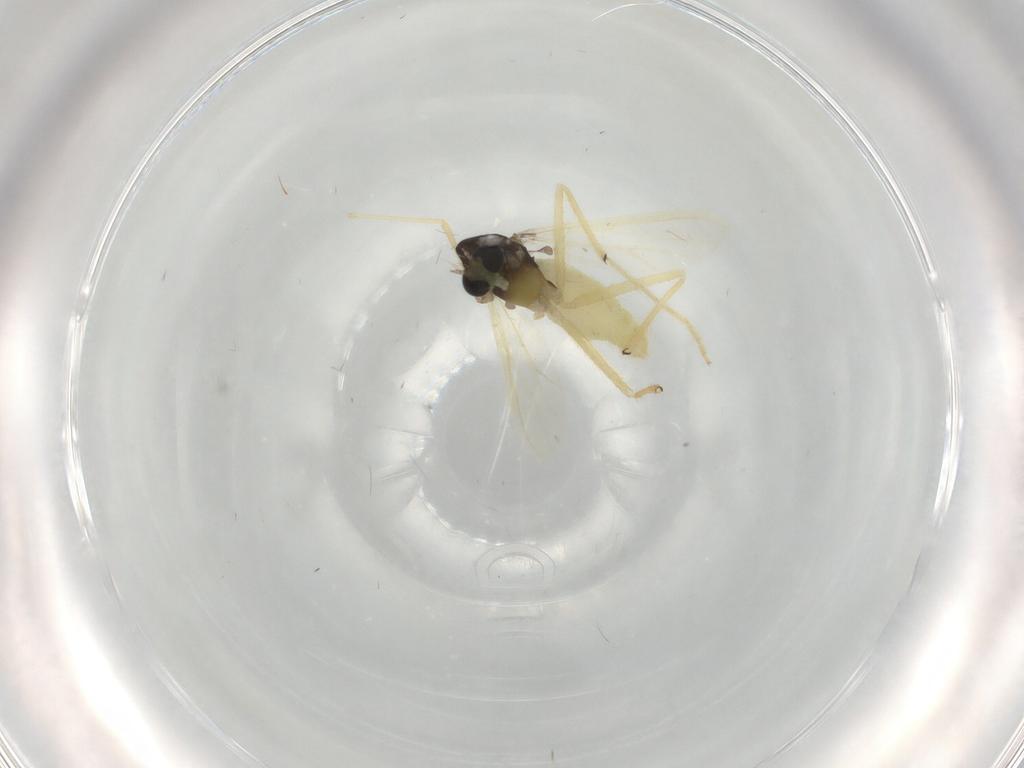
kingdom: Animalia
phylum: Arthropoda
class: Insecta
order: Diptera
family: Chironomidae
